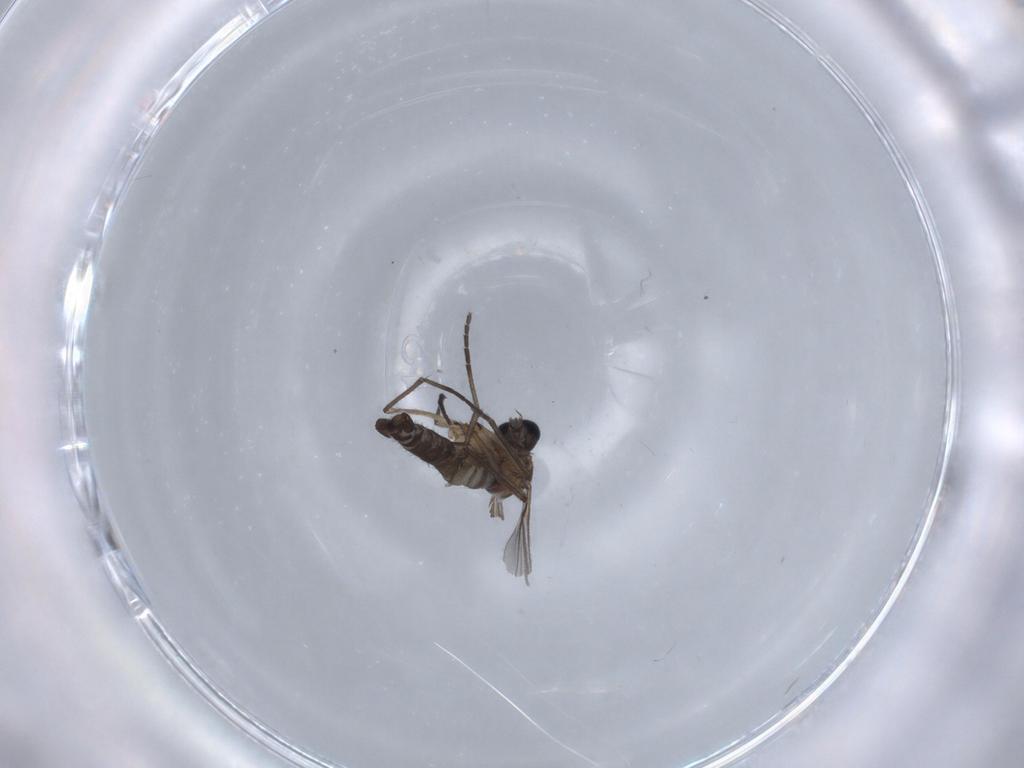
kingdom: Animalia
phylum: Arthropoda
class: Insecta
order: Diptera
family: Sciaridae
